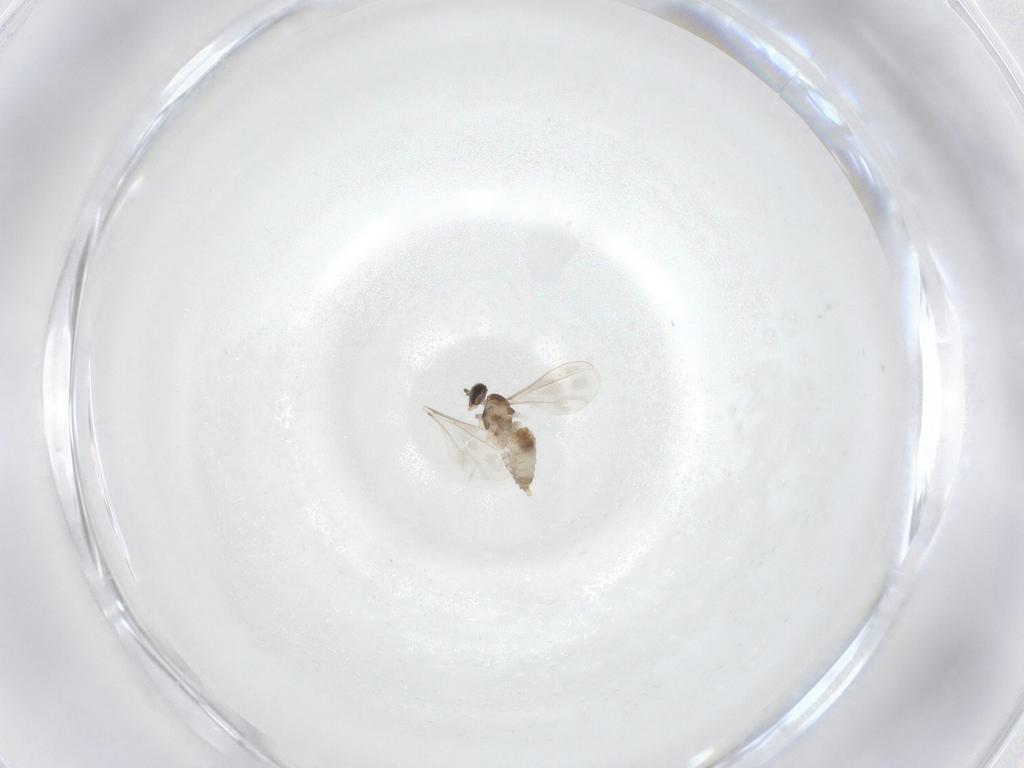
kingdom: Animalia
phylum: Arthropoda
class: Insecta
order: Diptera
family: Cecidomyiidae
